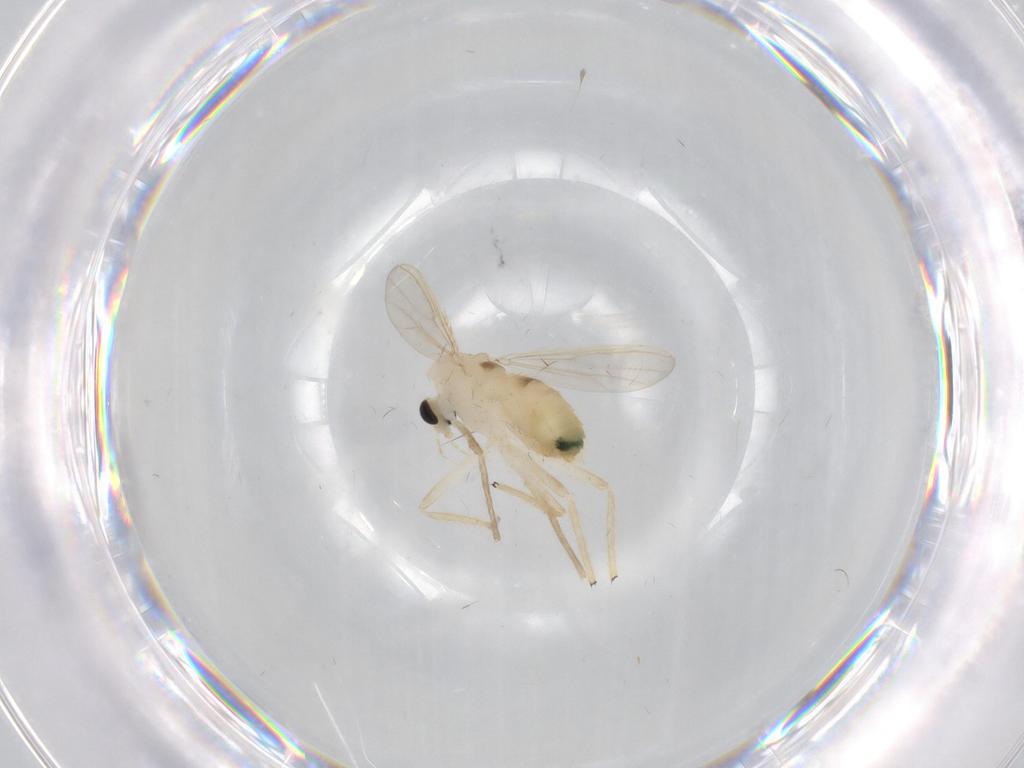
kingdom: Animalia
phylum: Arthropoda
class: Insecta
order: Diptera
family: Chironomidae
